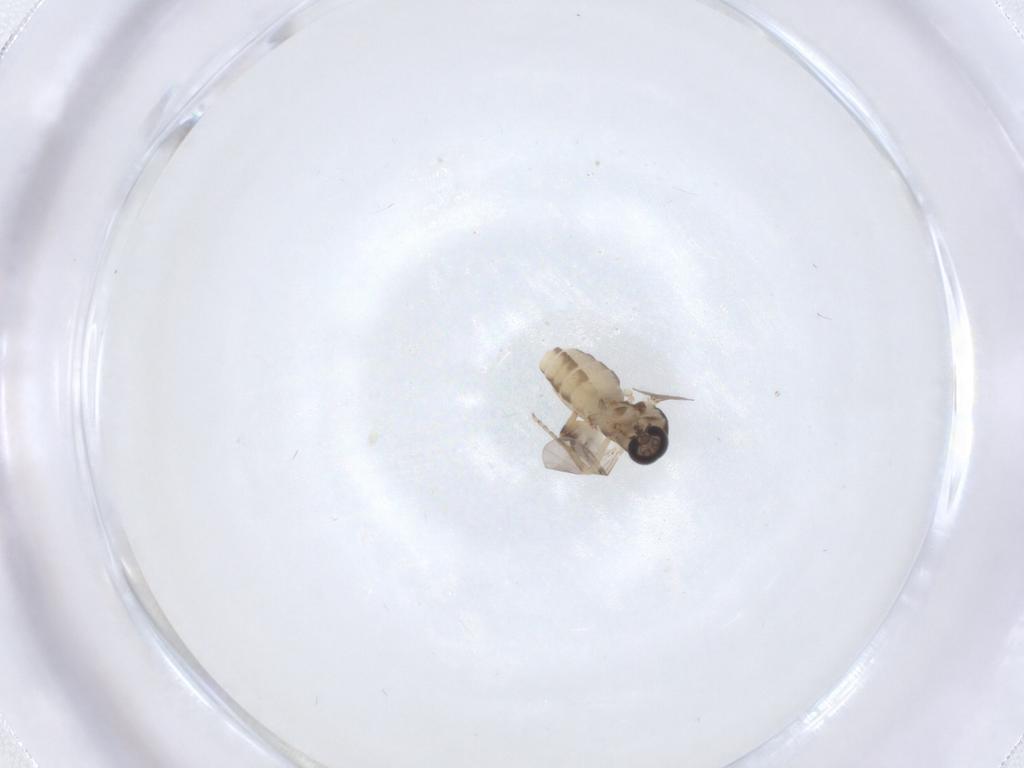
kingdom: Animalia
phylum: Arthropoda
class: Insecta
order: Diptera
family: Ceratopogonidae
